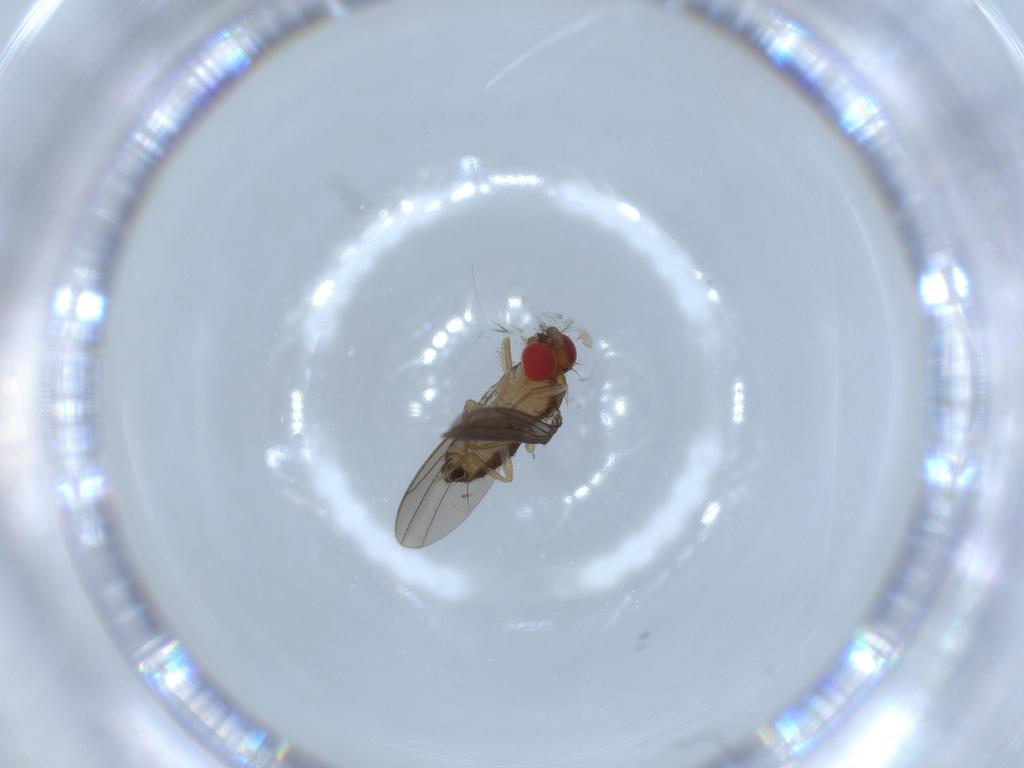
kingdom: Animalia
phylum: Arthropoda
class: Insecta
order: Diptera
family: Drosophilidae
